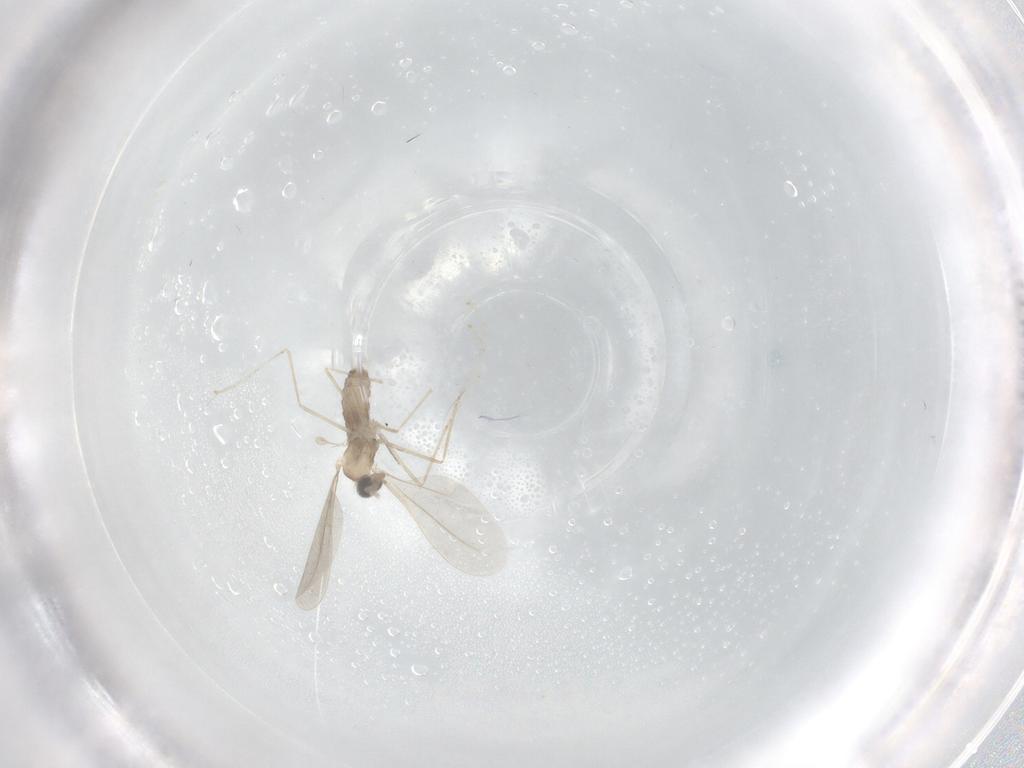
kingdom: Animalia
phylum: Arthropoda
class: Insecta
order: Diptera
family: Cecidomyiidae
